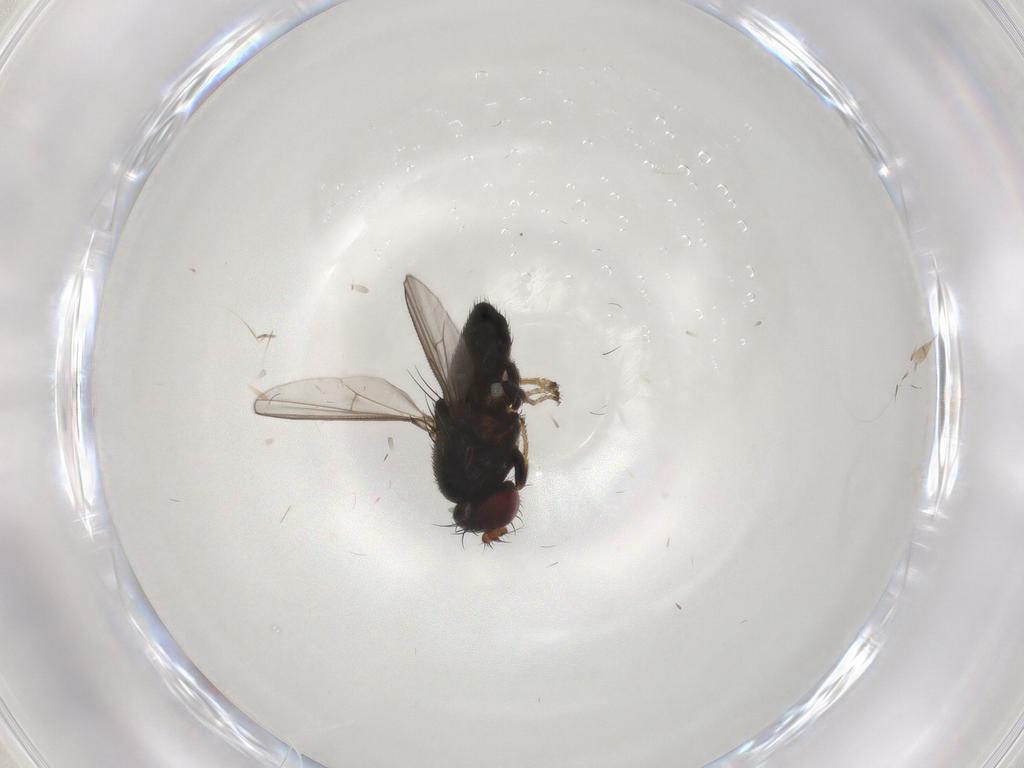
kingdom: Animalia
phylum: Arthropoda
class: Insecta
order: Diptera
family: Ephydridae
